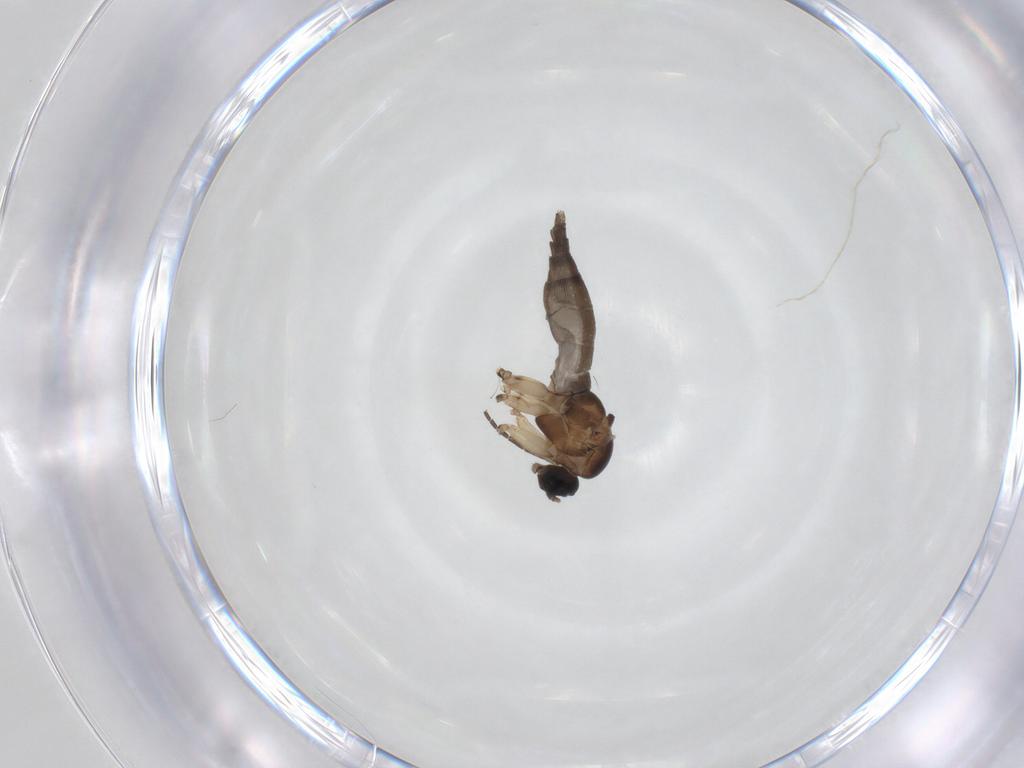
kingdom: Animalia
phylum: Arthropoda
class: Insecta
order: Diptera
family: Sciaridae
